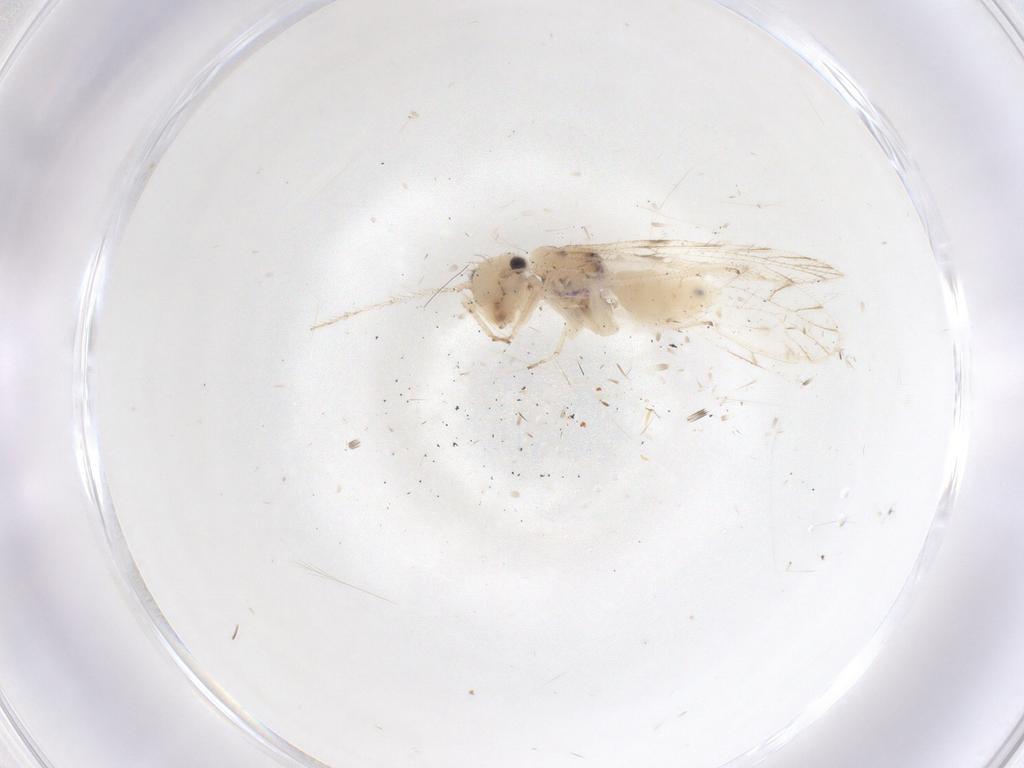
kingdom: Animalia
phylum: Arthropoda
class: Insecta
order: Psocodea
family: Trichopsocidae
